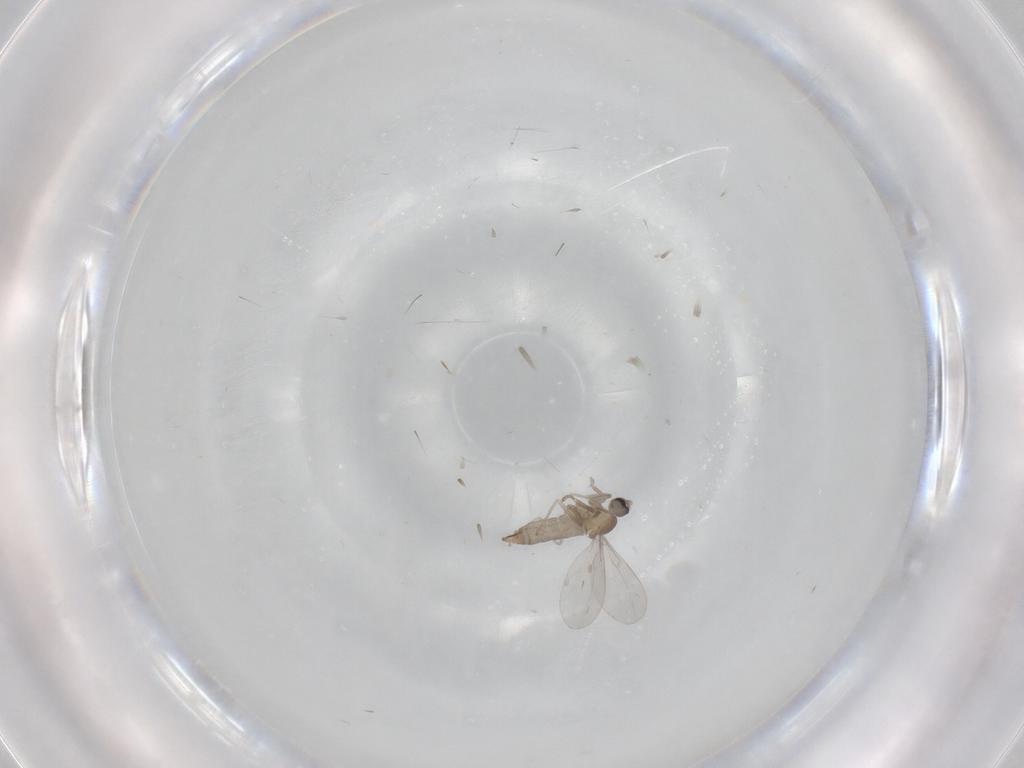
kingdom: Animalia
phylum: Arthropoda
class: Insecta
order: Diptera
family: Cecidomyiidae
